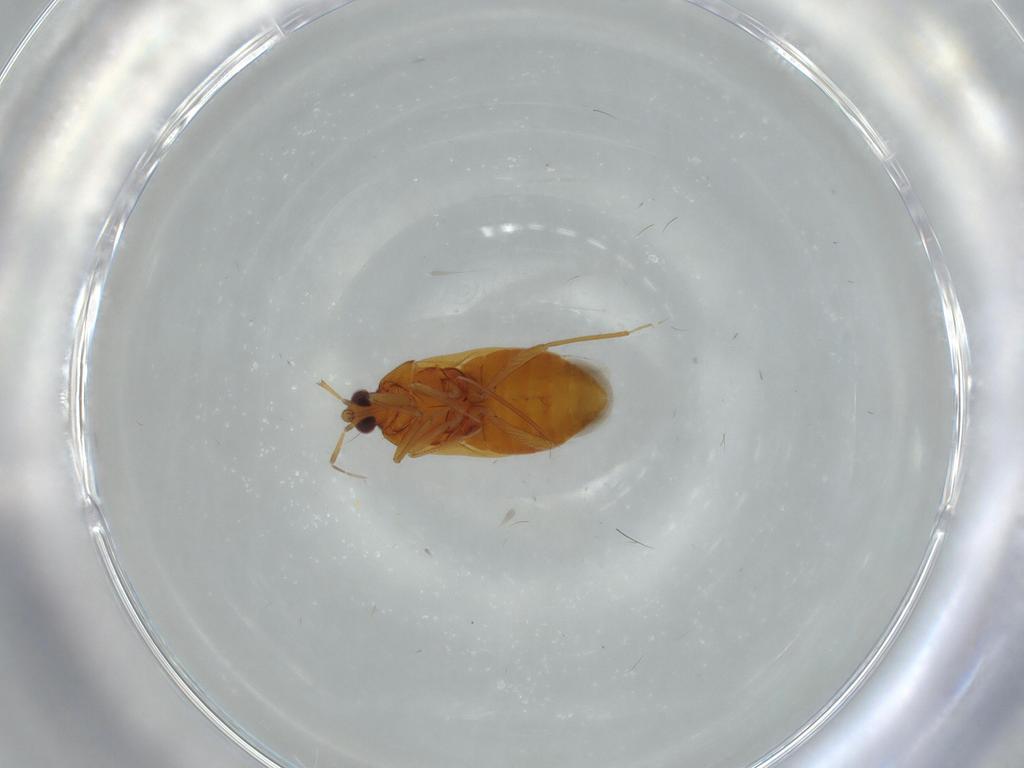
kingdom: Animalia
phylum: Arthropoda
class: Insecta
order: Hemiptera
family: Anthocoridae
